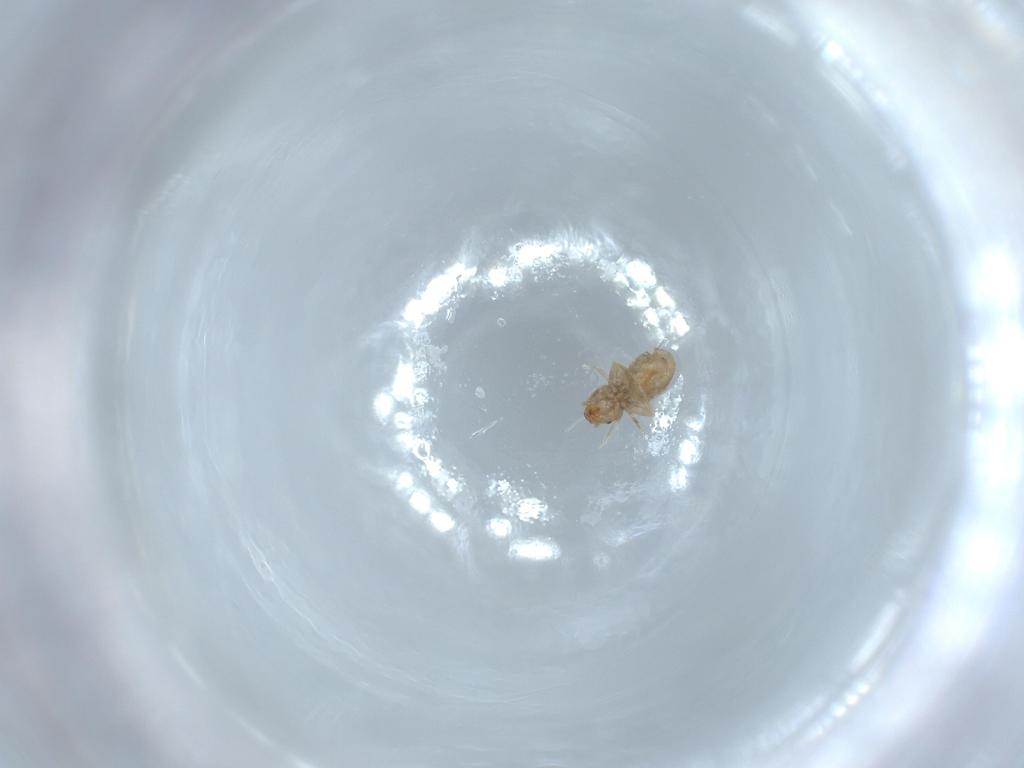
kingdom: Animalia
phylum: Arthropoda
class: Insecta
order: Psocodea
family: Liposcelididae
